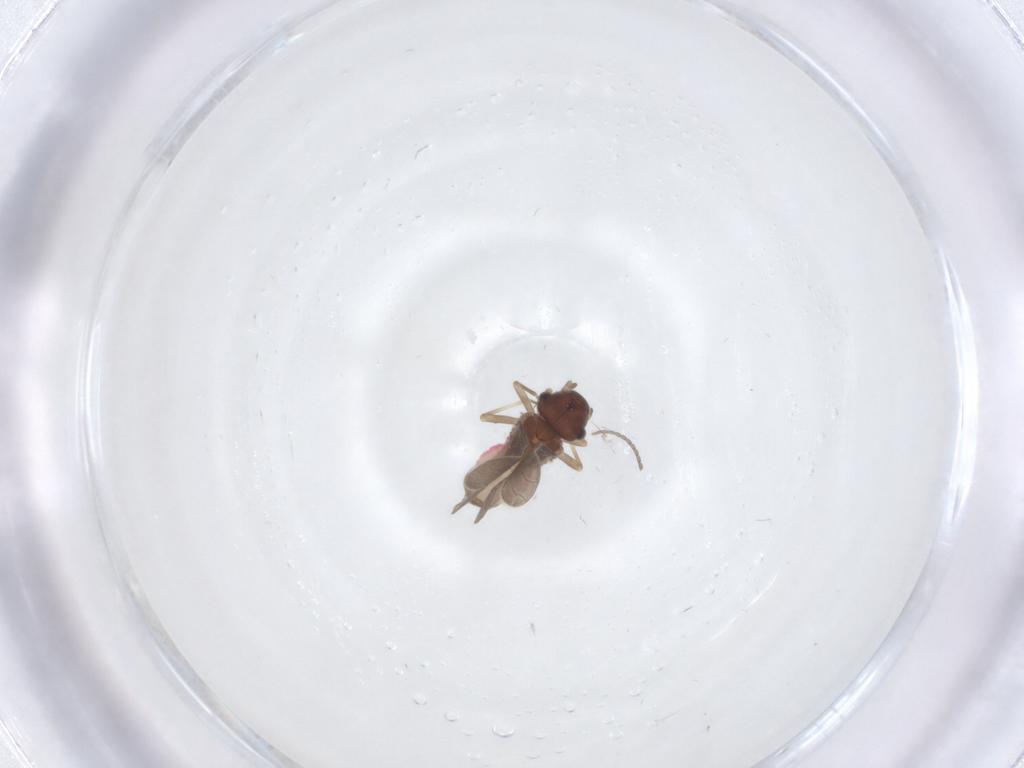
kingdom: Animalia
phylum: Arthropoda
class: Insecta
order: Psocodea
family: Asiopsocidae
